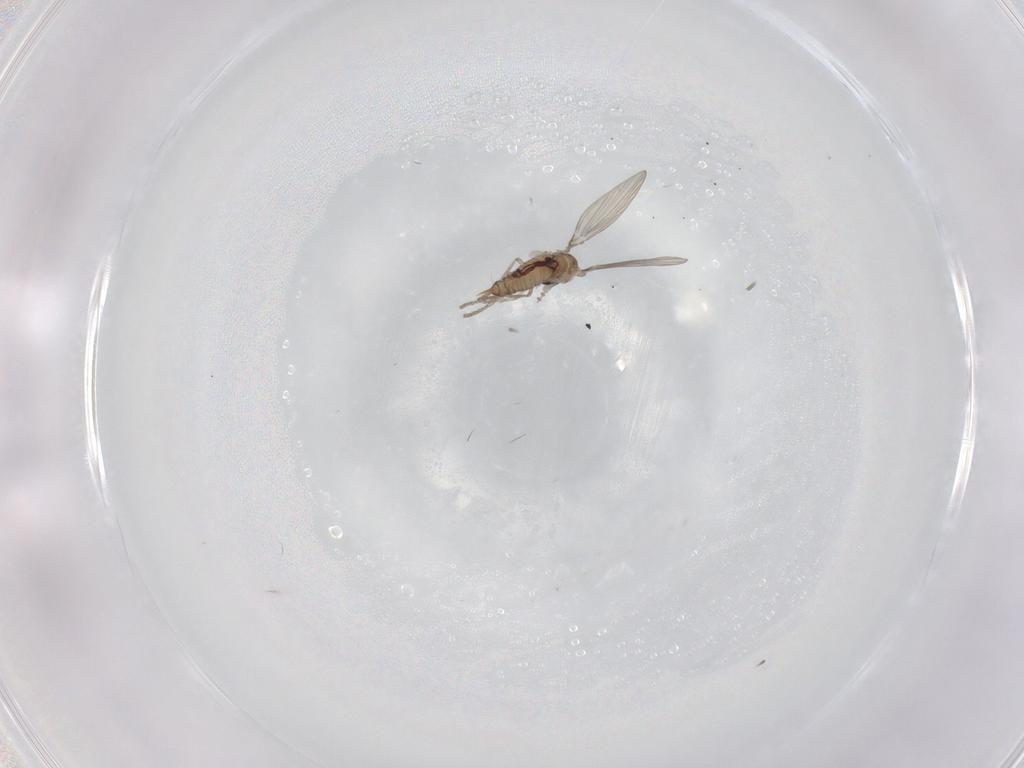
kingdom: Animalia
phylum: Arthropoda
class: Insecta
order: Diptera
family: Psychodidae
